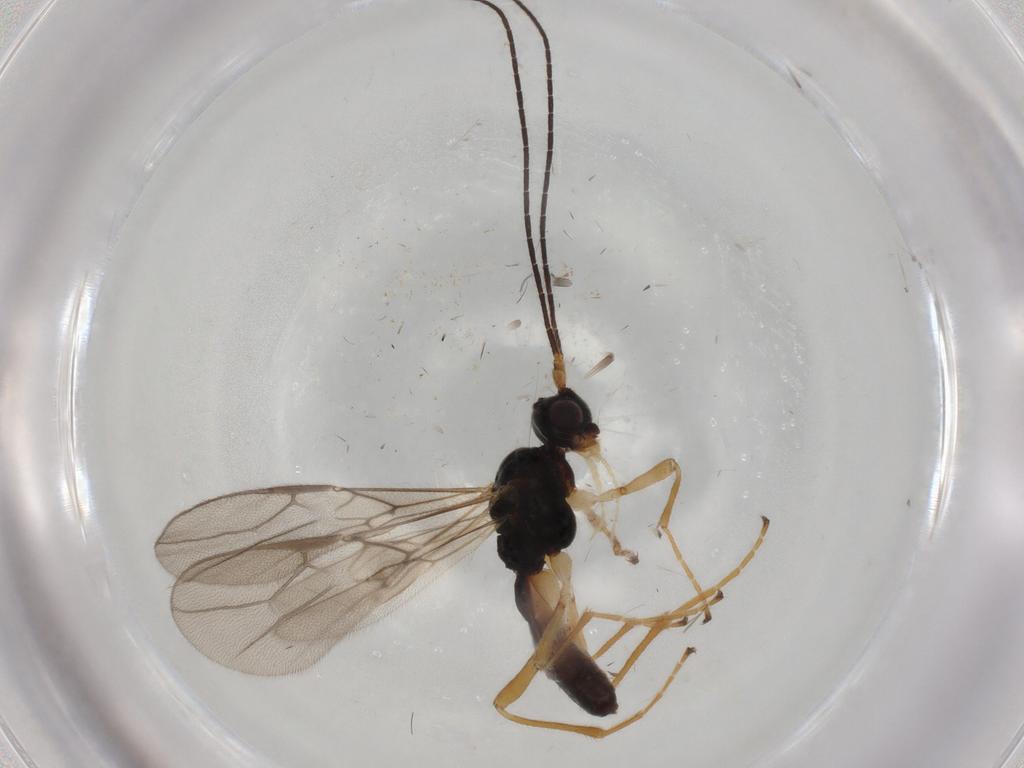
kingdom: Animalia
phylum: Arthropoda
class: Insecta
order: Hymenoptera
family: Braconidae
